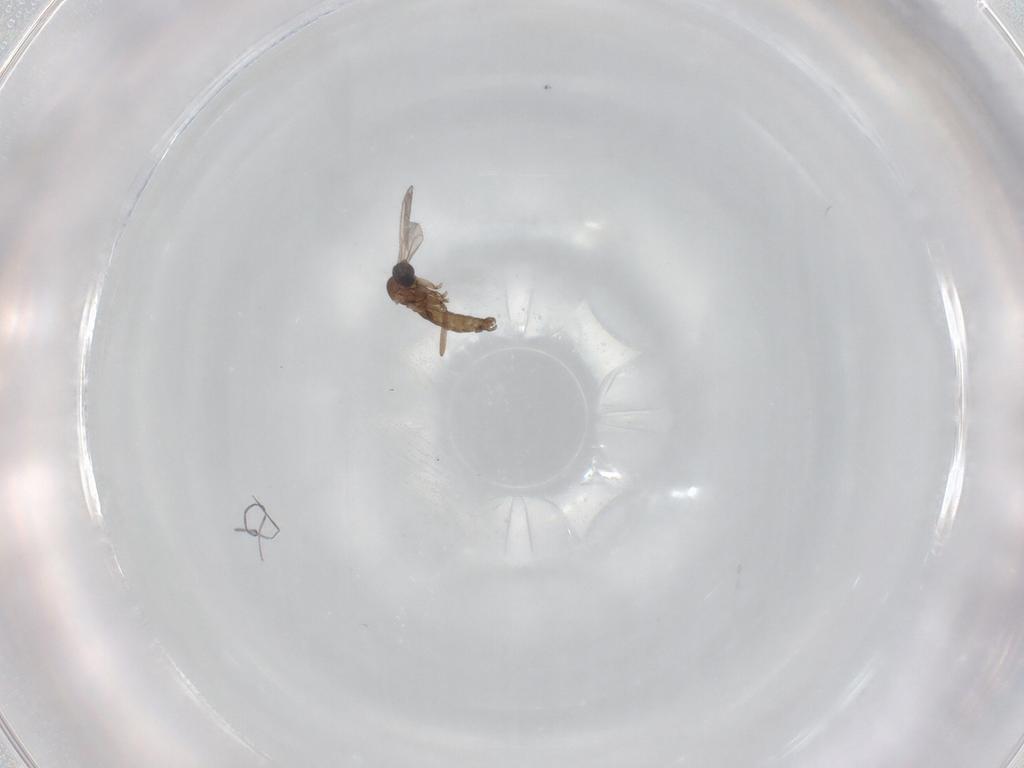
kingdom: Animalia
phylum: Arthropoda
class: Insecta
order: Diptera
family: Sciaridae
